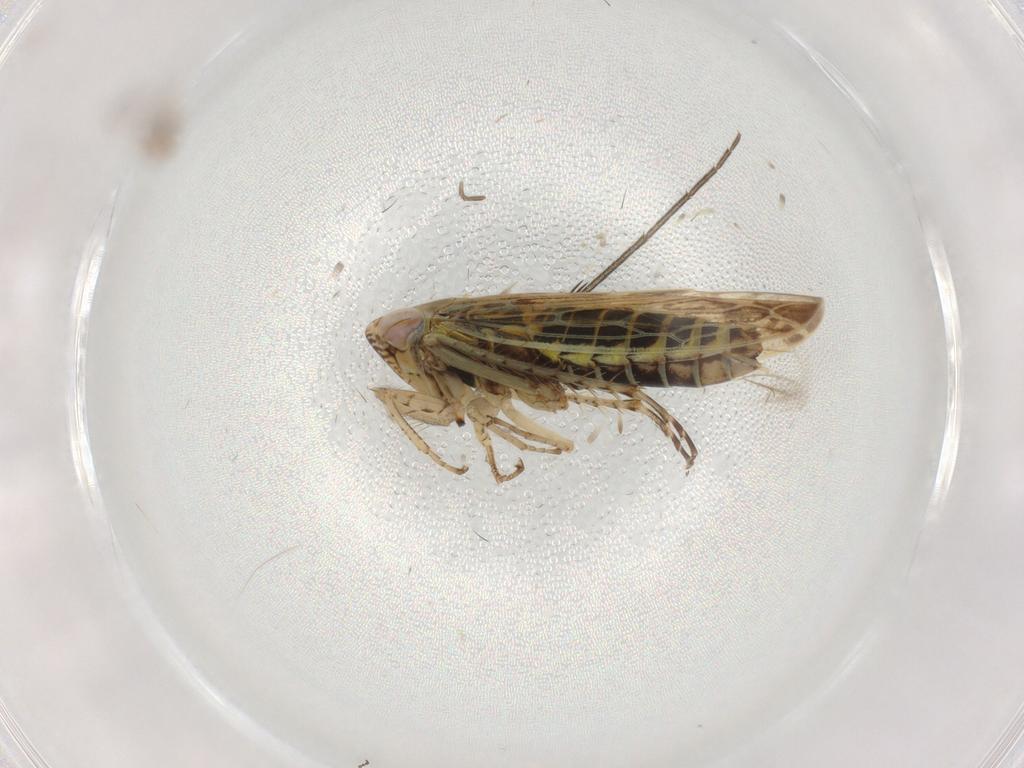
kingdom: Animalia
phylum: Arthropoda
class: Insecta
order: Hemiptera
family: Cicadellidae
